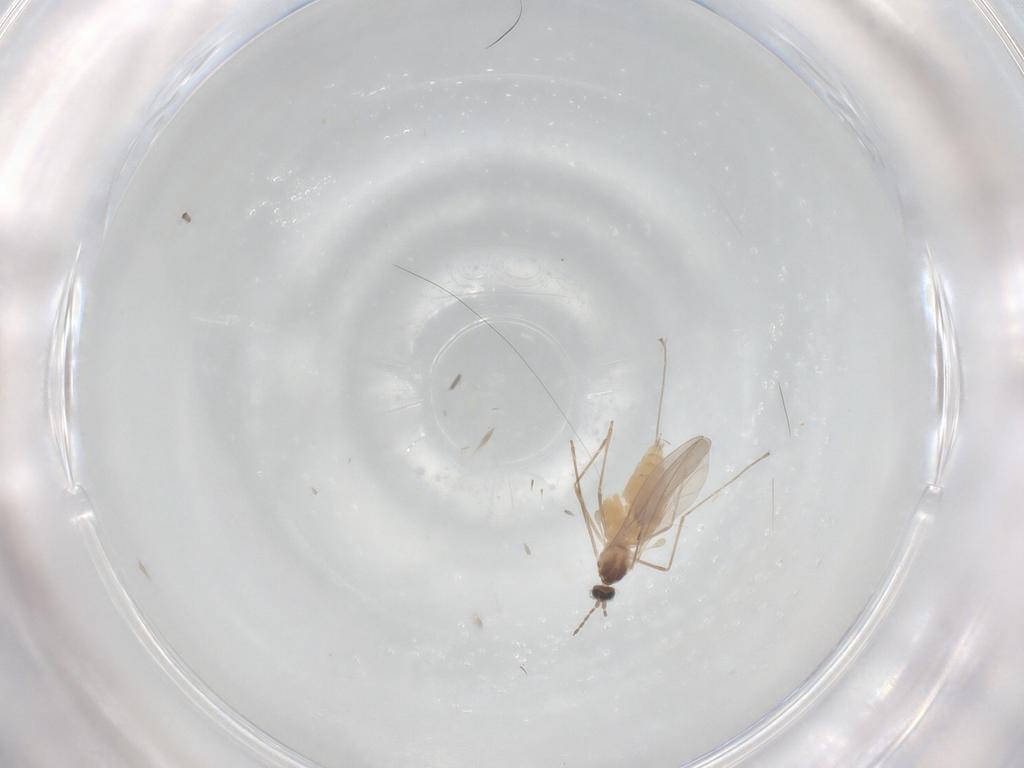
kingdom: Animalia
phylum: Arthropoda
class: Insecta
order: Diptera
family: Cecidomyiidae
